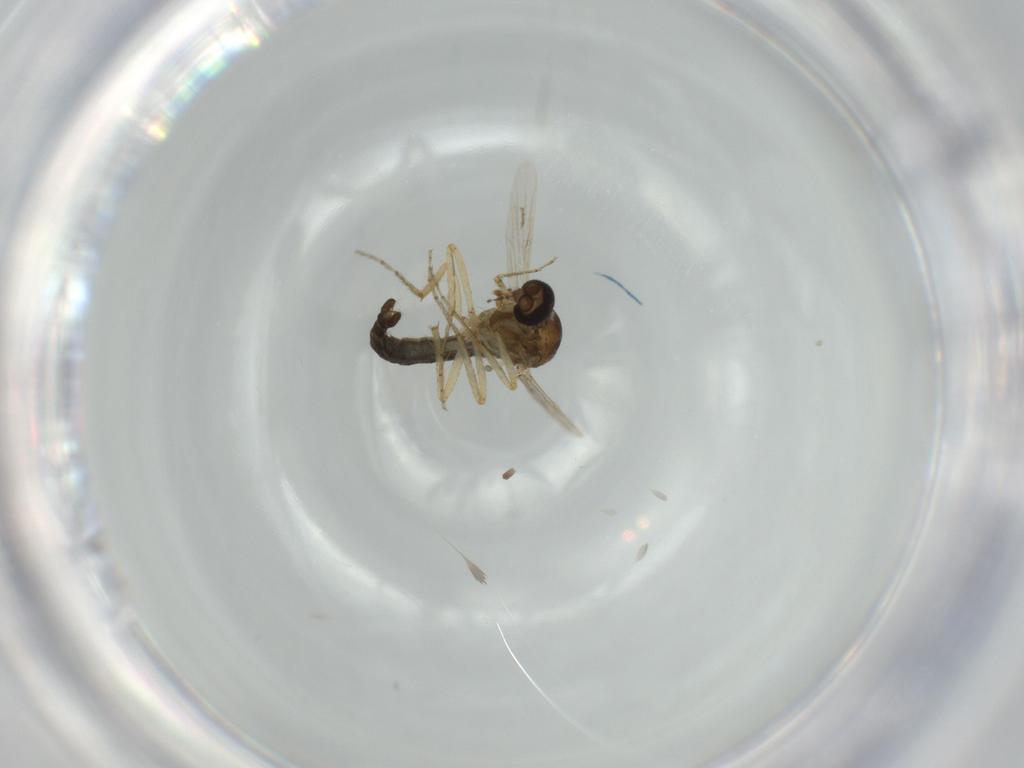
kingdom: Animalia
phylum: Arthropoda
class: Insecta
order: Diptera
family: Ceratopogonidae
